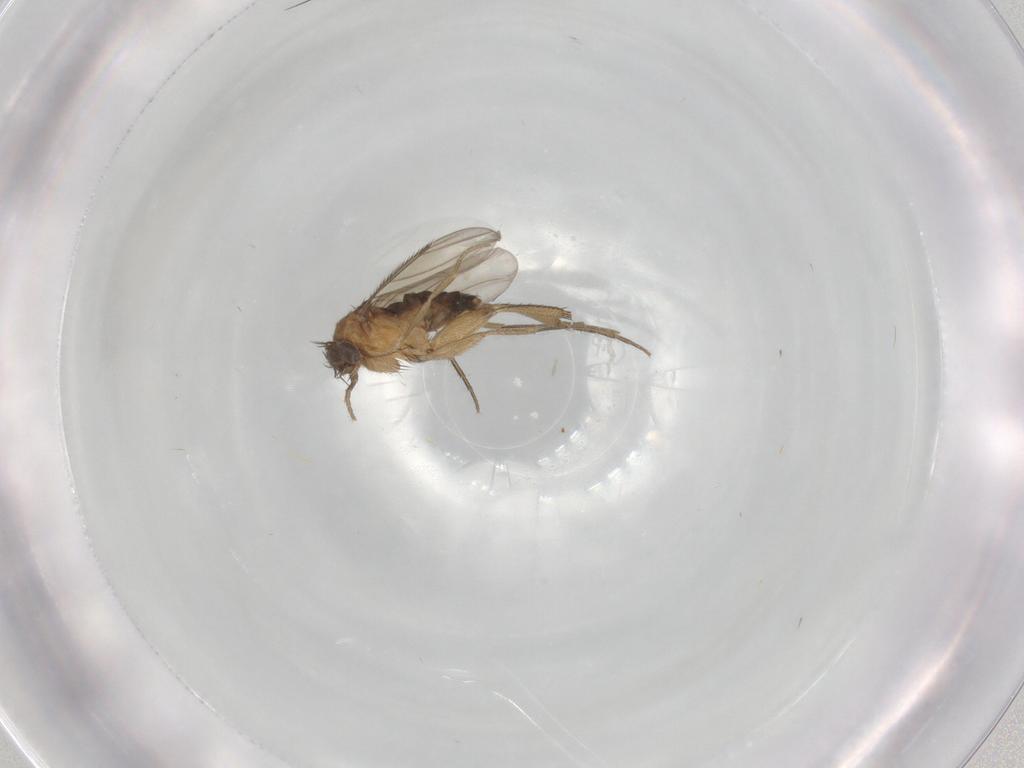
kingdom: Animalia
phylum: Arthropoda
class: Insecta
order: Diptera
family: Phoridae
